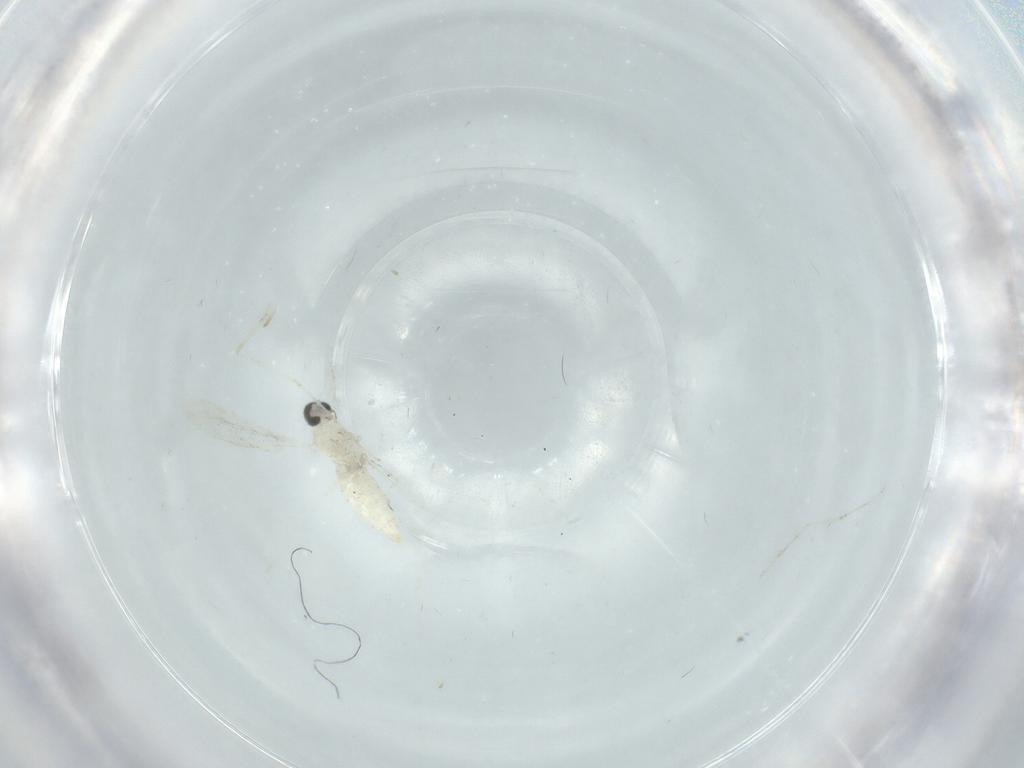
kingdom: Animalia
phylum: Arthropoda
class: Insecta
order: Diptera
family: Cecidomyiidae
